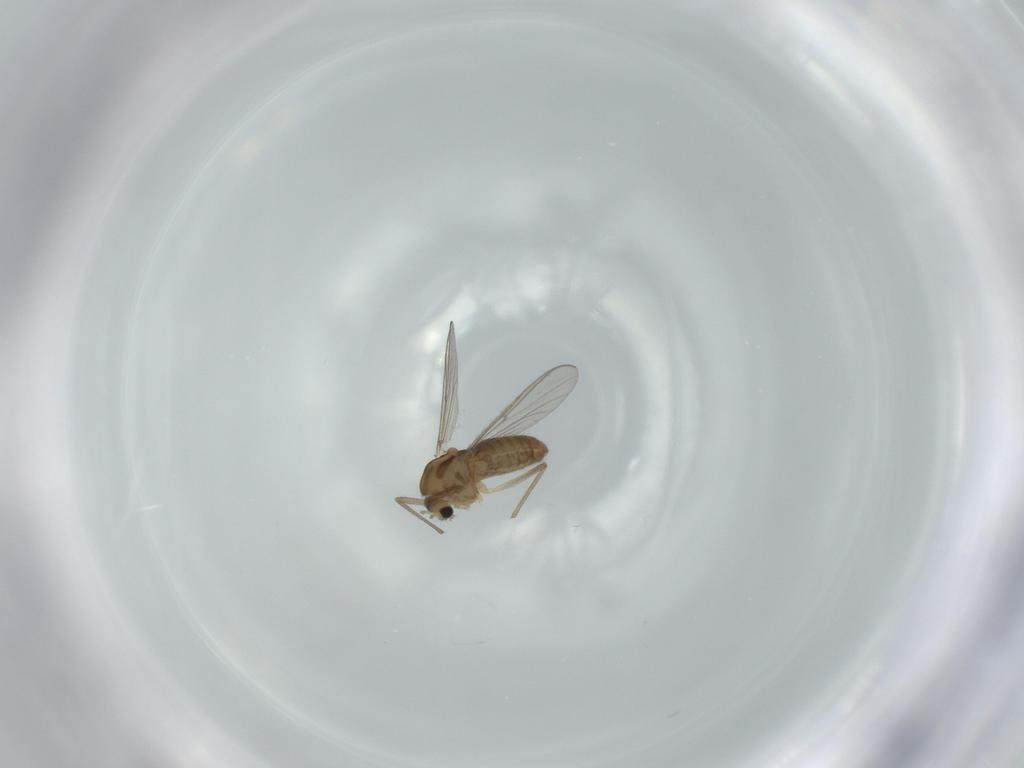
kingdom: Animalia
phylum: Arthropoda
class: Insecta
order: Diptera
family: Chironomidae
